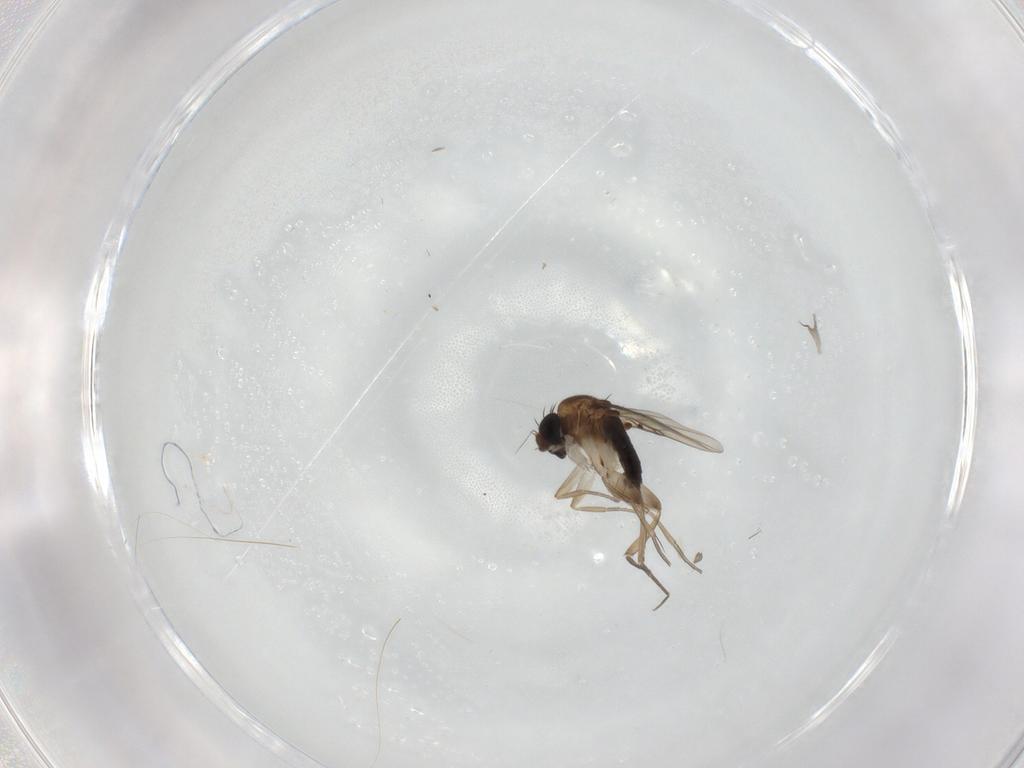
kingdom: Animalia
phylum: Arthropoda
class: Insecta
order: Diptera
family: Phoridae
